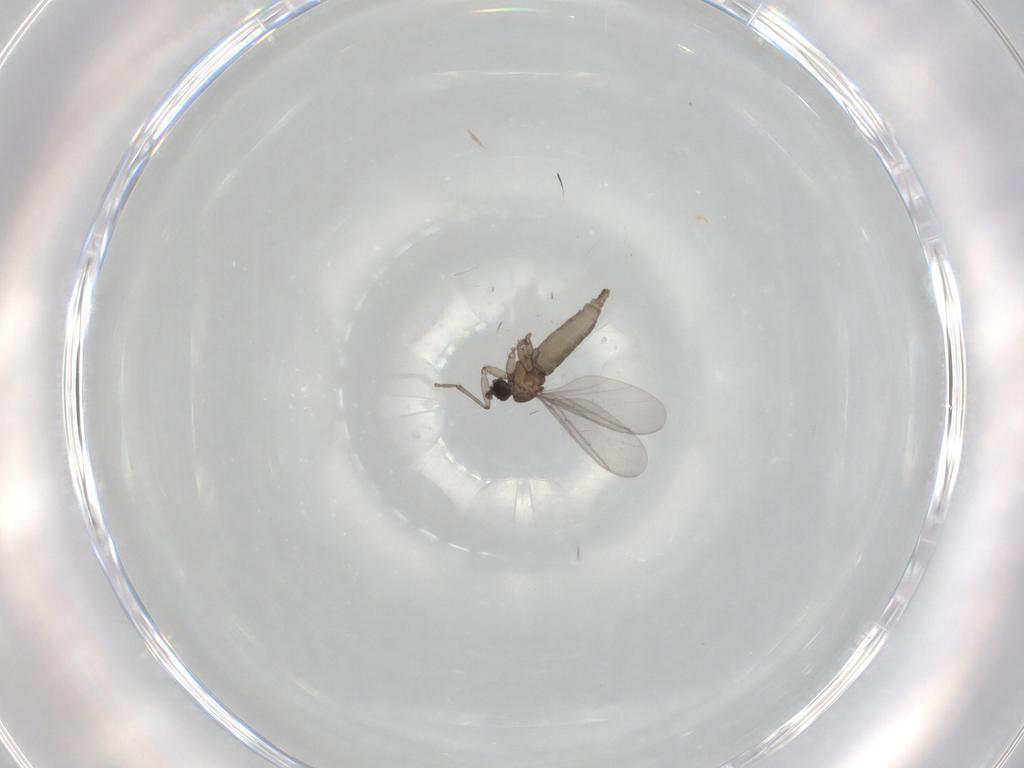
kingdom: Animalia
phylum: Arthropoda
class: Insecta
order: Diptera
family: Sciaridae
